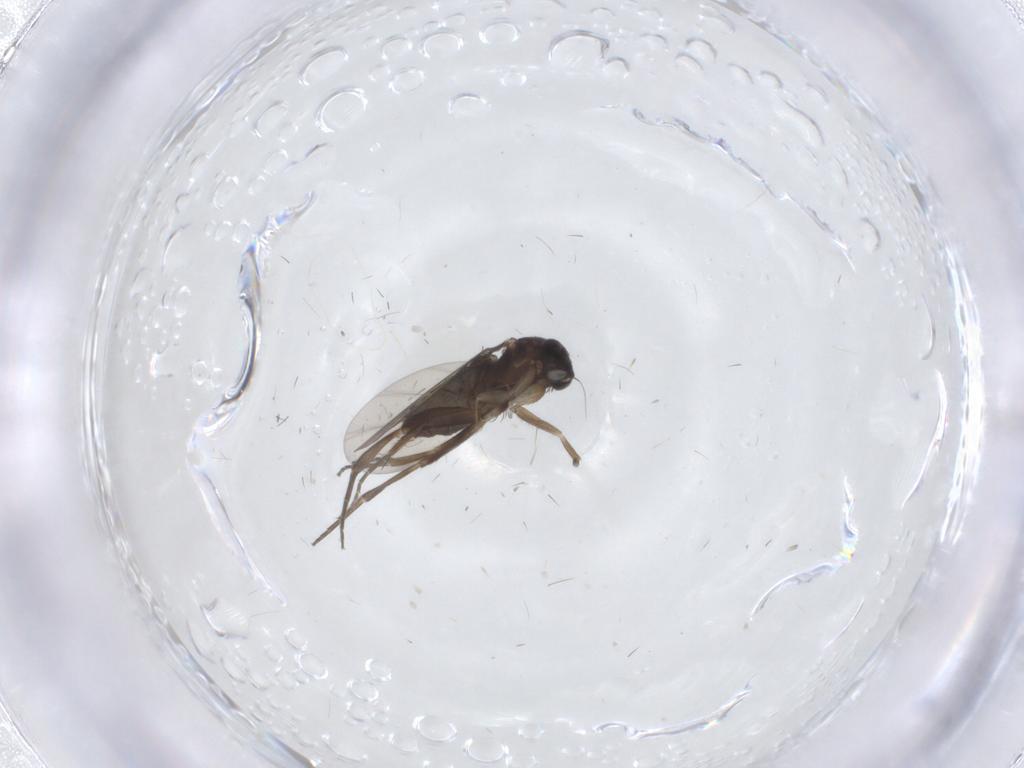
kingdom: Animalia
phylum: Arthropoda
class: Insecta
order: Diptera
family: Phoridae
